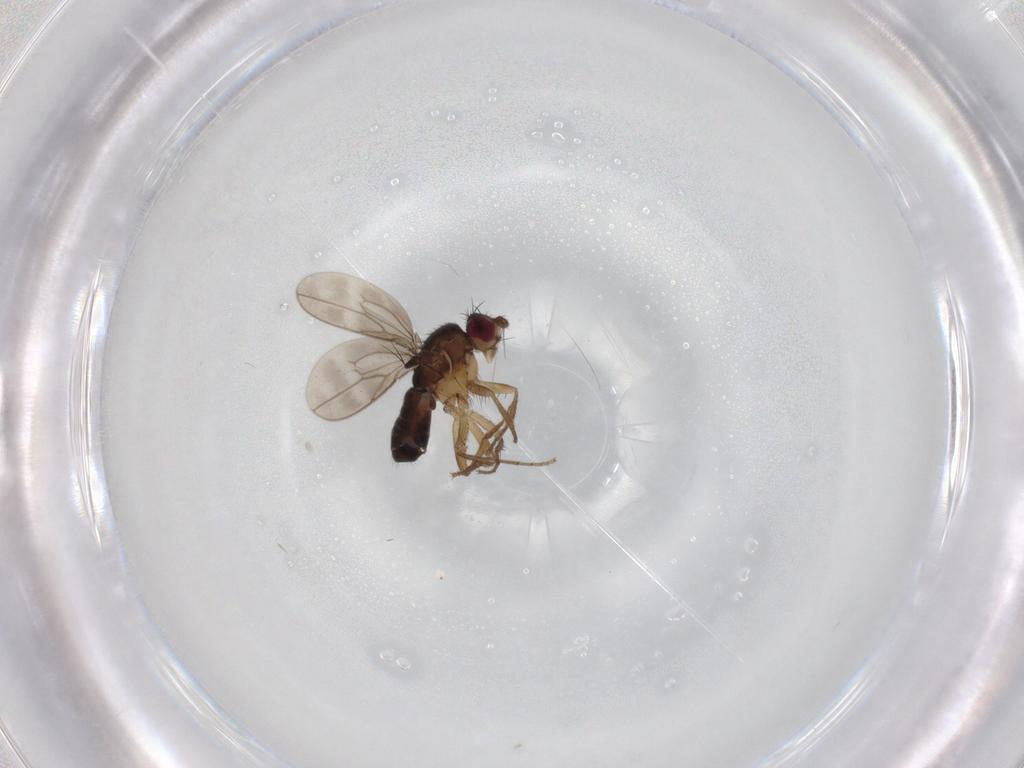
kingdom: Animalia
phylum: Arthropoda
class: Insecta
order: Diptera
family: Sphaeroceridae
